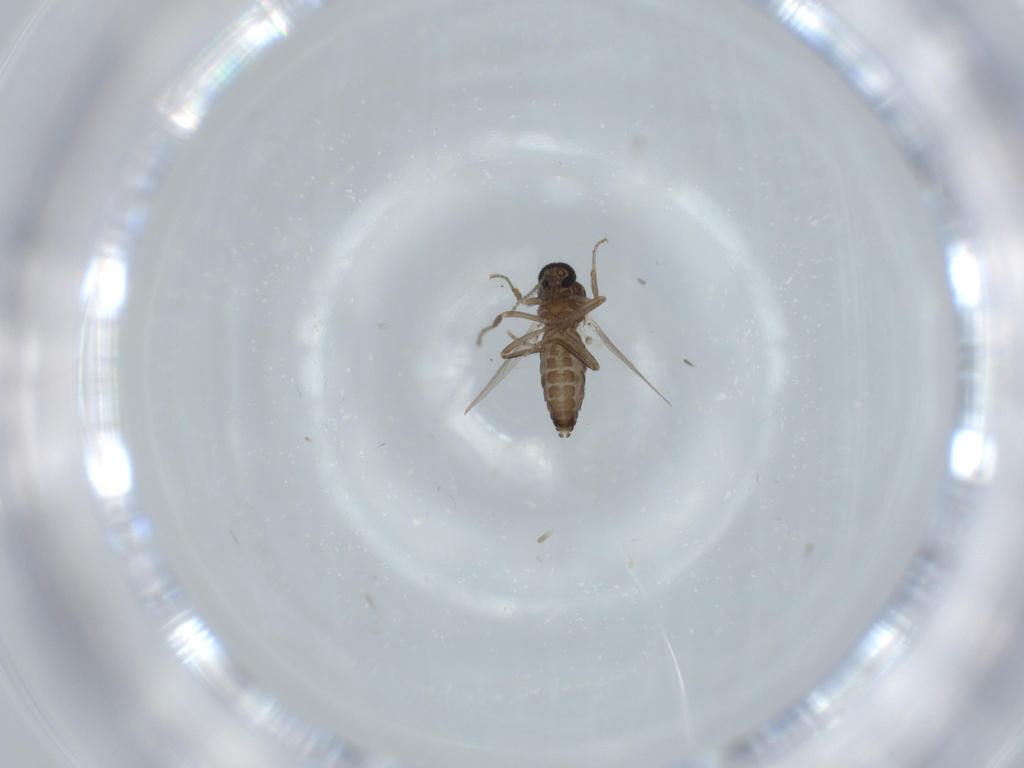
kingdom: Animalia
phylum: Arthropoda
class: Insecta
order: Diptera
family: Ceratopogonidae
